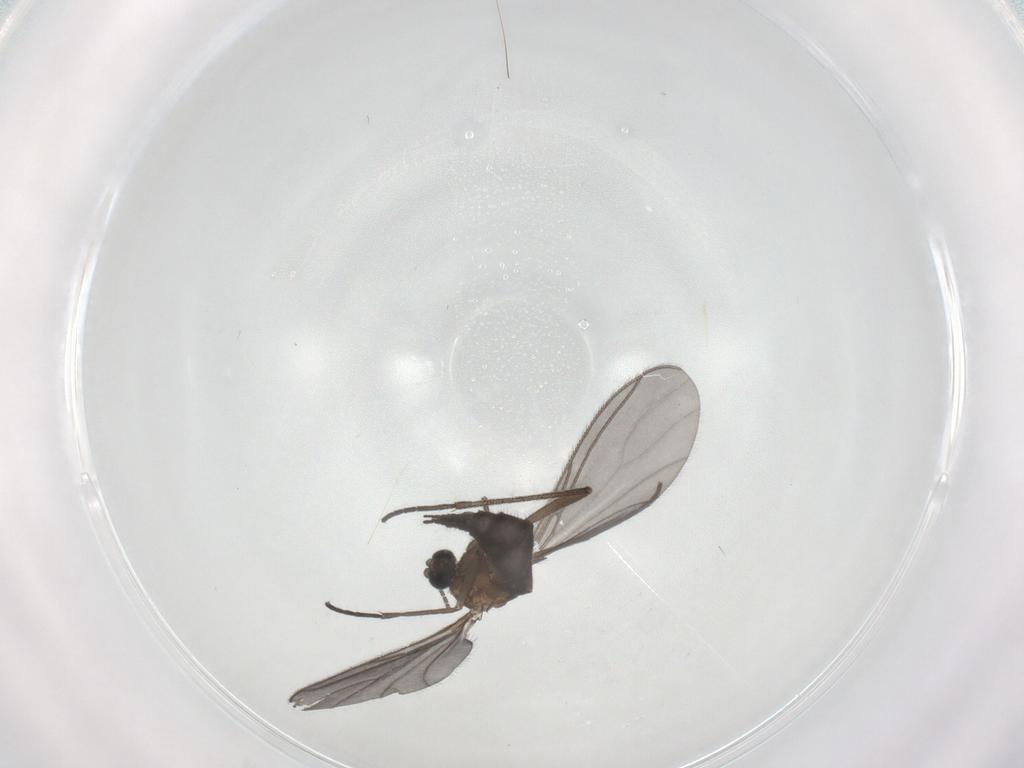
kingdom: Animalia
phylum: Arthropoda
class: Insecta
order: Diptera
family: Sciaridae
